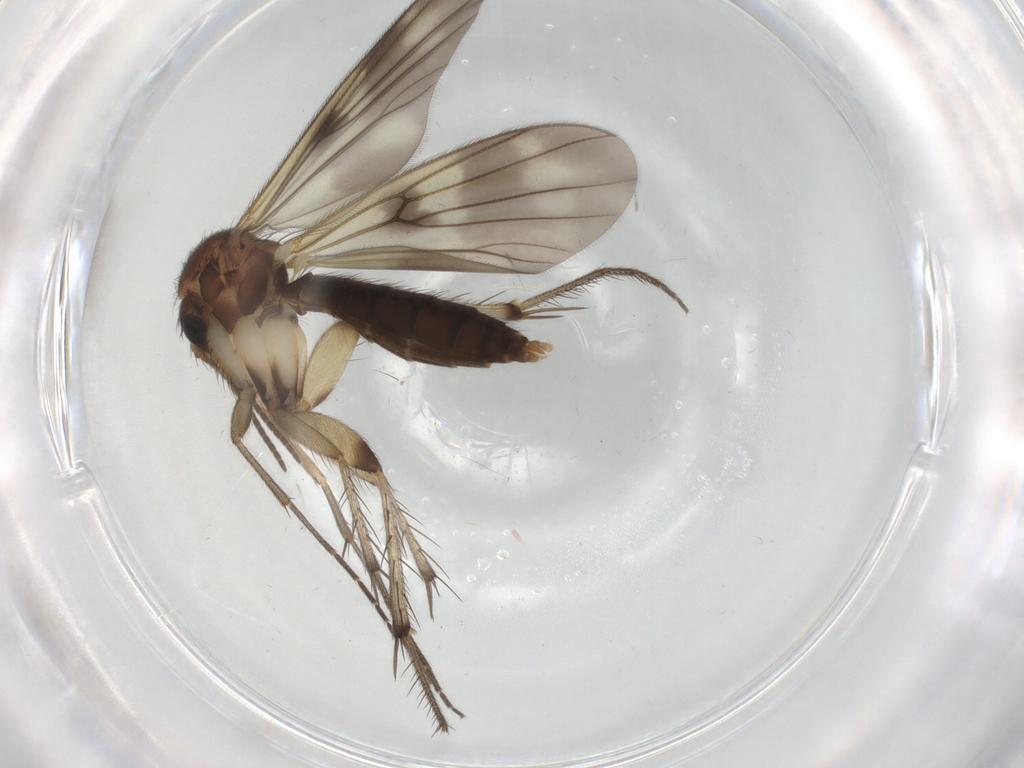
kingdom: Animalia
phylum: Arthropoda
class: Insecta
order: Diptera
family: Mycetophilidae
